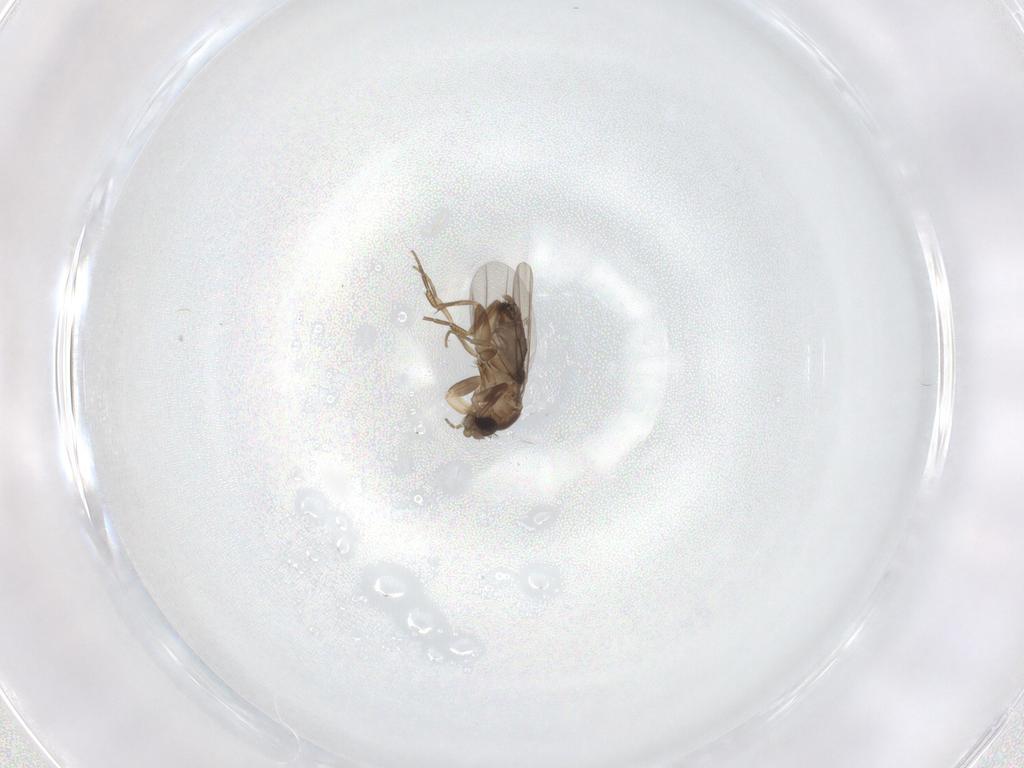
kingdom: Animalia
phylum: Arthropoda
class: Insecta
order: Diptera
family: Phoridae
